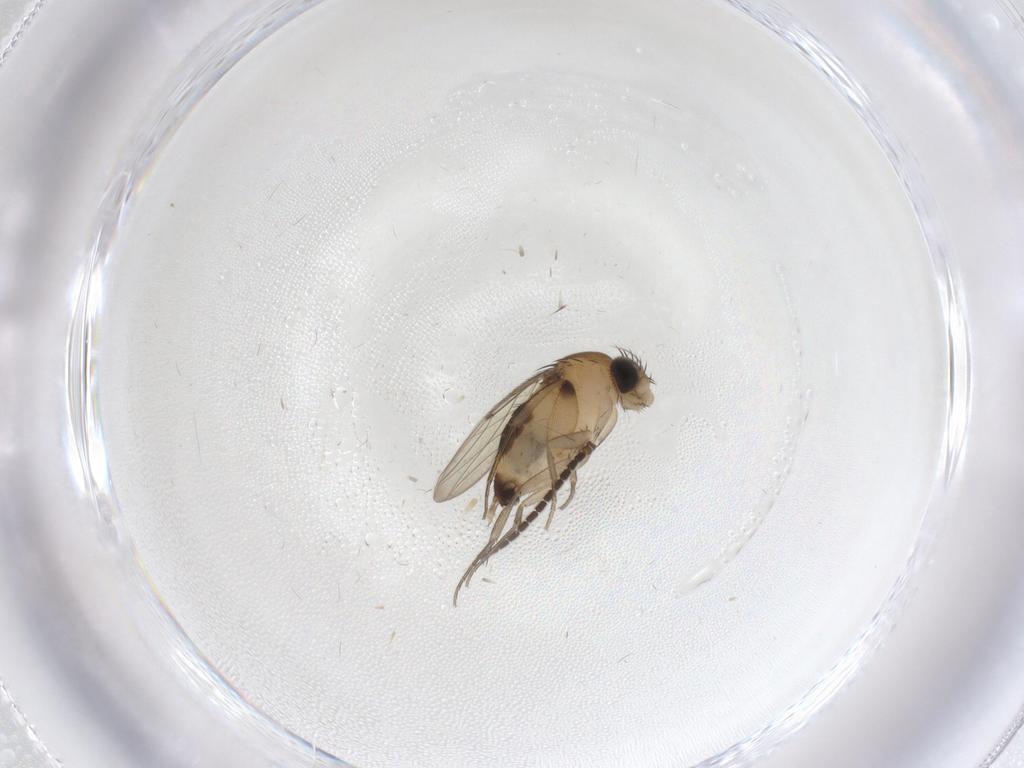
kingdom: Animalia
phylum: Arthropoda
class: Insecta
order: Diptera
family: Phoridae
